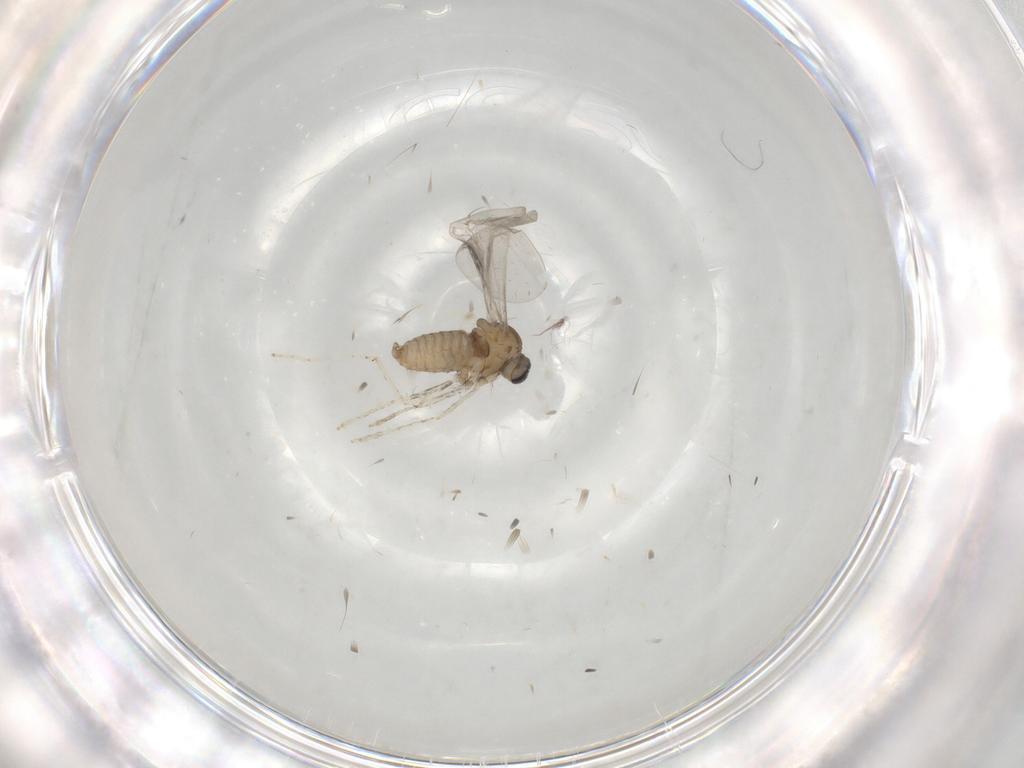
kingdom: Animalia
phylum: Arthropoda
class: Insecta
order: Diptera
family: Cecidomyiidae
